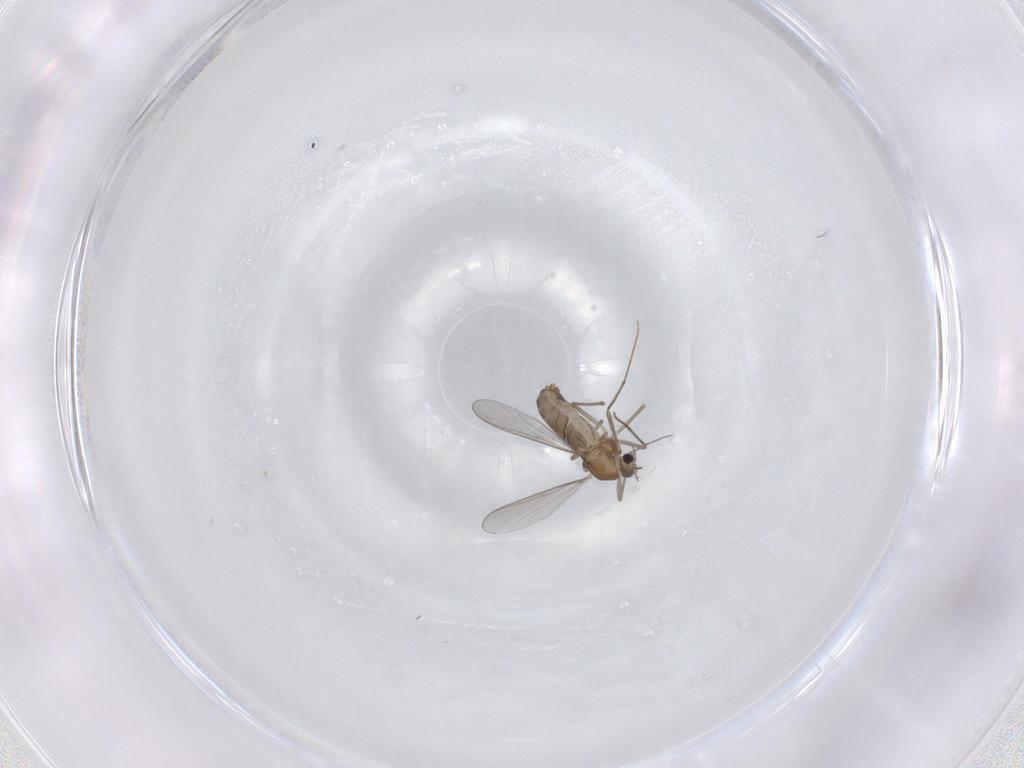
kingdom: Animalia
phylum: Arthropoda
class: Insecta
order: Diptera
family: Chironomidae
